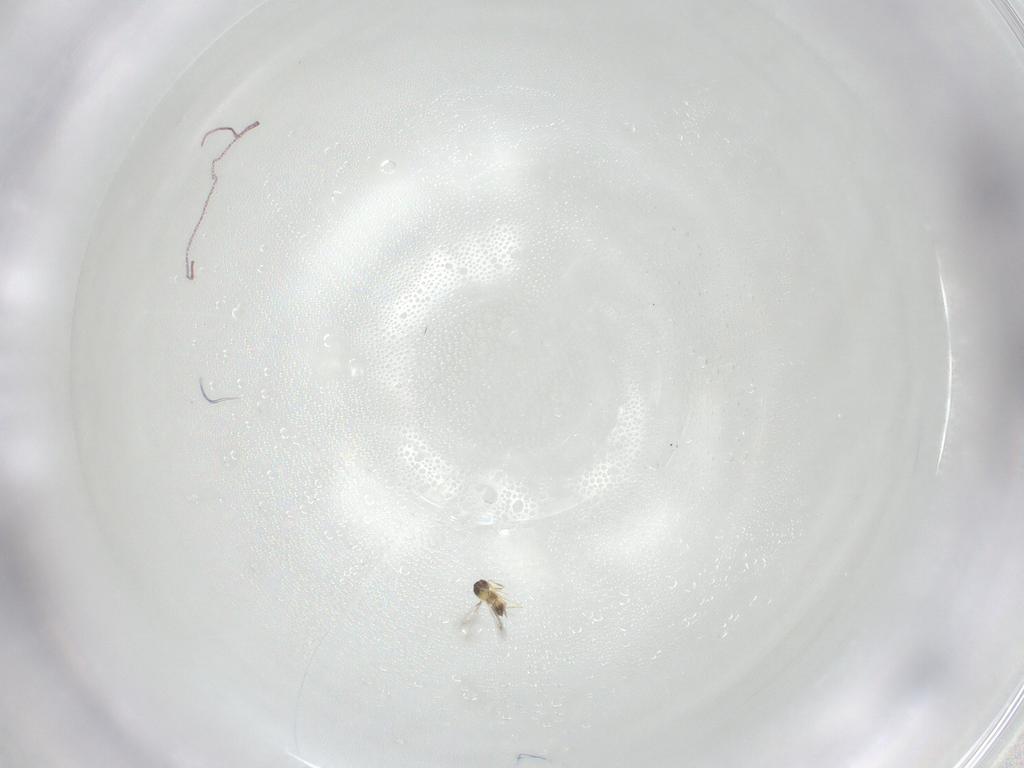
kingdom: Animalia
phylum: Arthropoda
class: Insecta
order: Hymenoptera
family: Mymaridae
